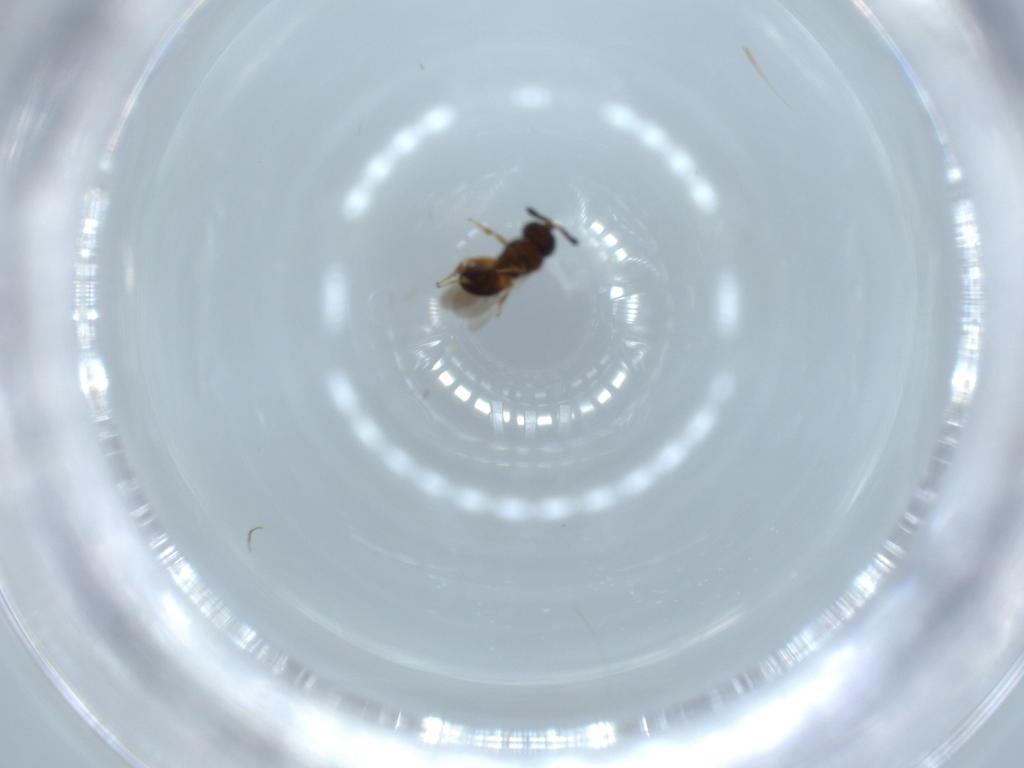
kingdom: Animalia
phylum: Arthropoda
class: Insecta
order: Hymenoptera
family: Scelionidae
